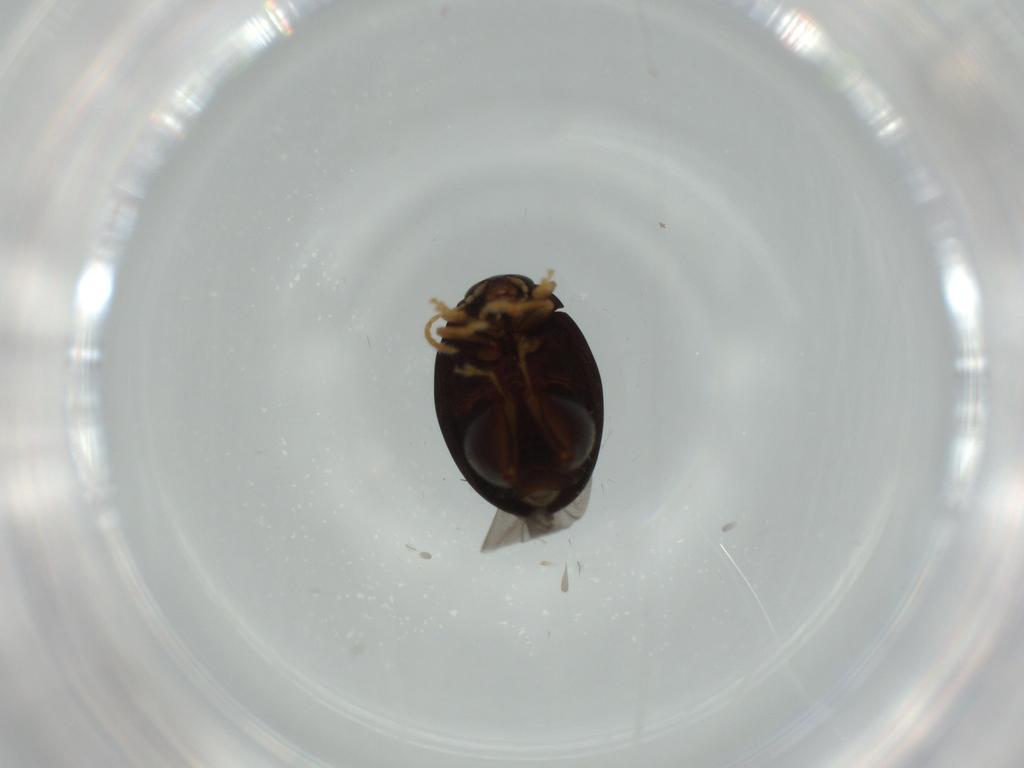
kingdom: Animalia
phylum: Arthropoda
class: Insecta
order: Coleoptera
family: Chrysomelidae
